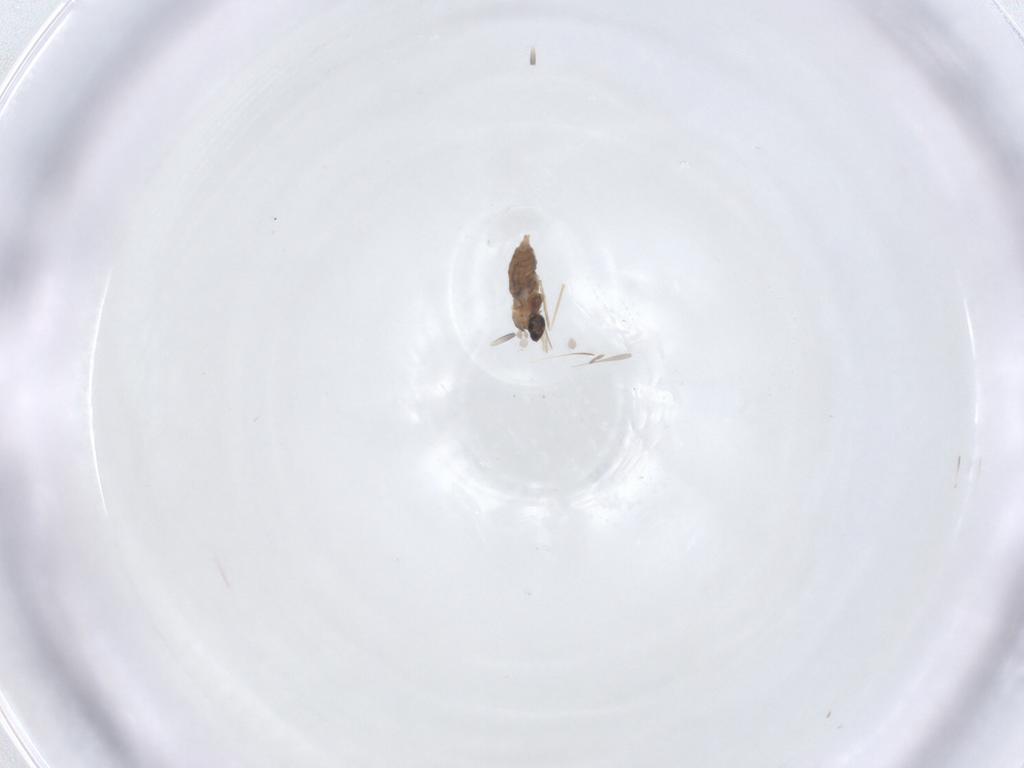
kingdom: Animalia
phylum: Arthropoda
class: Insecta
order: Diptera
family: Cecidomyiidae
